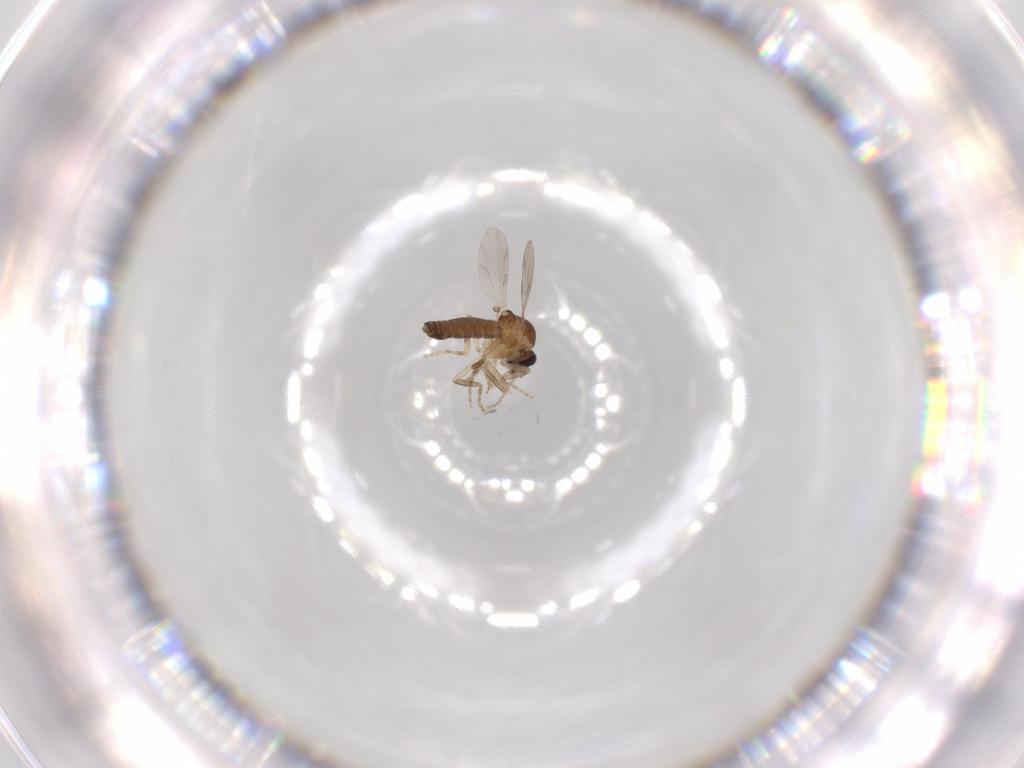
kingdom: Animalia
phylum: Arthropoda
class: Insecta
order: Diptera
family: Ceratopogonidae
